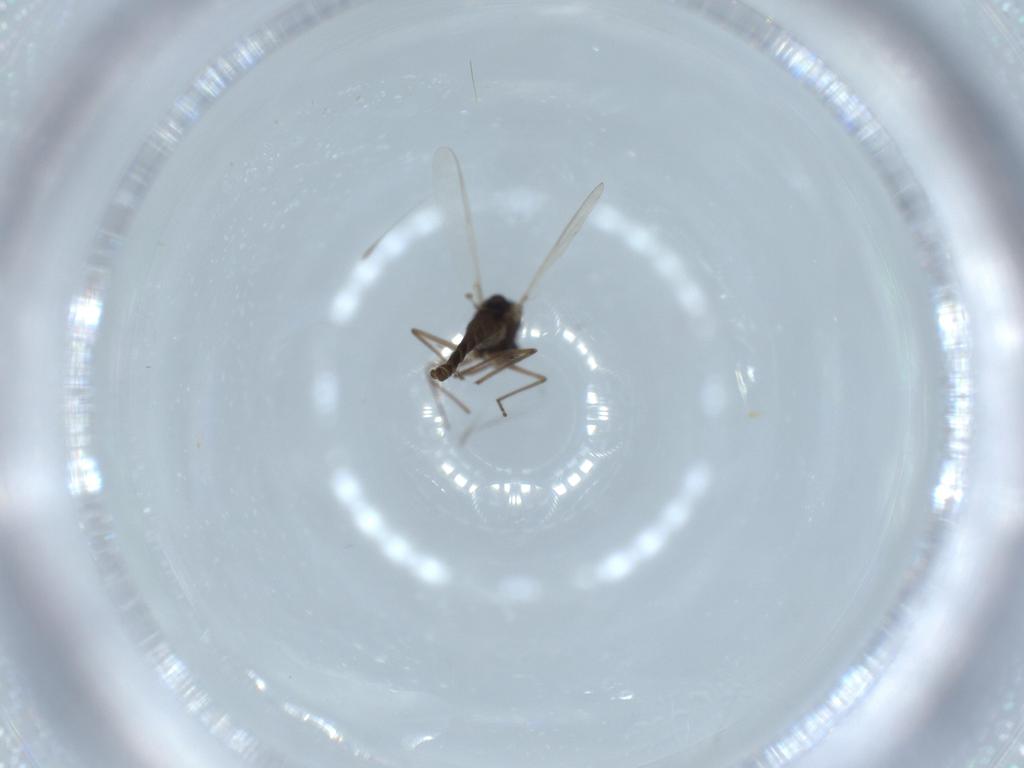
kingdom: Animalia
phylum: Arthropoda
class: Insecta
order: Diptera
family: Chironomidae
